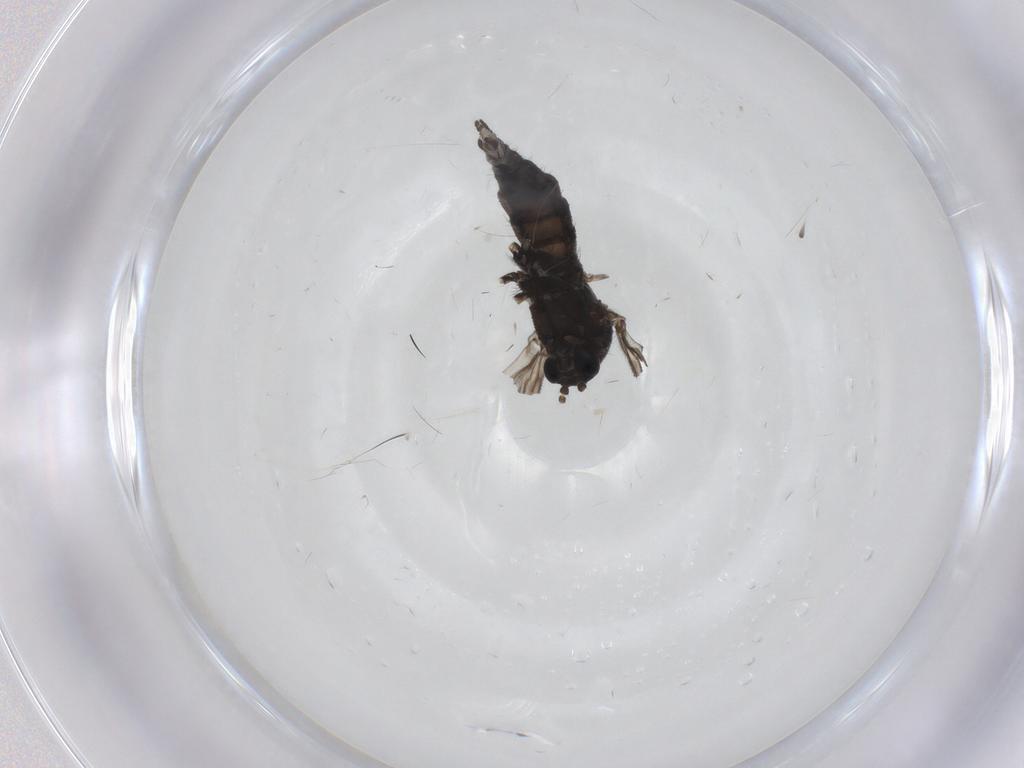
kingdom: Animalia
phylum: Arthropoda
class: Insecta
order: Diptera
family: Sciaridae
